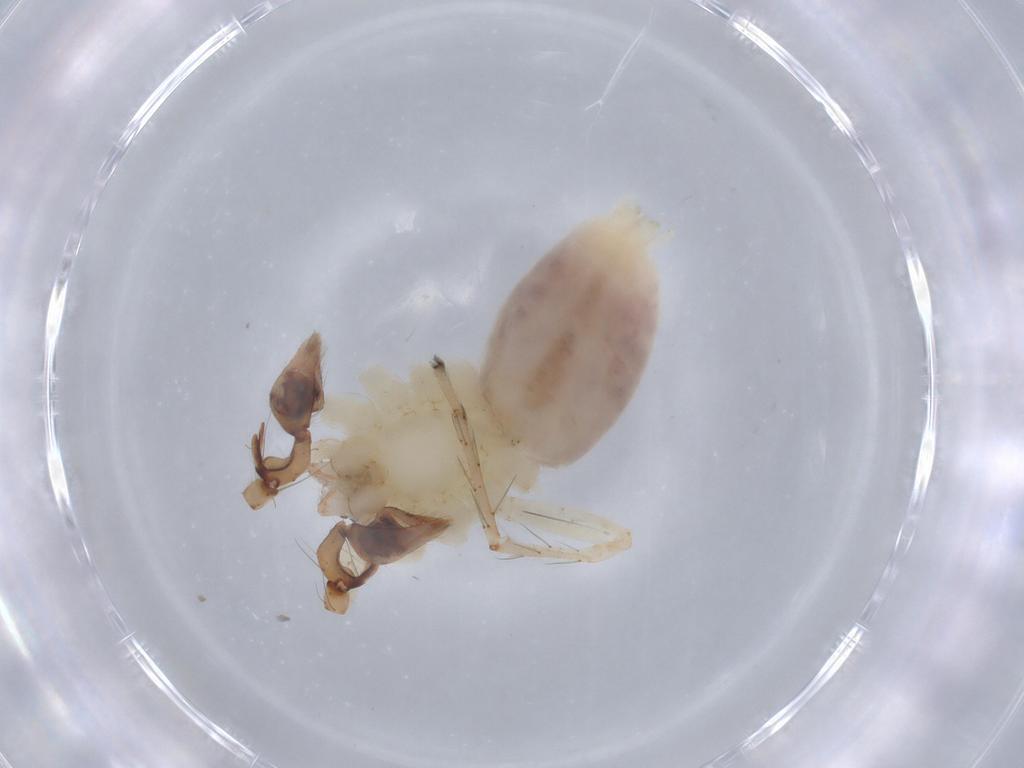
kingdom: Animalia
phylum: Arthropoda
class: Arachnida
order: Araneae
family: Anyphaenidae
